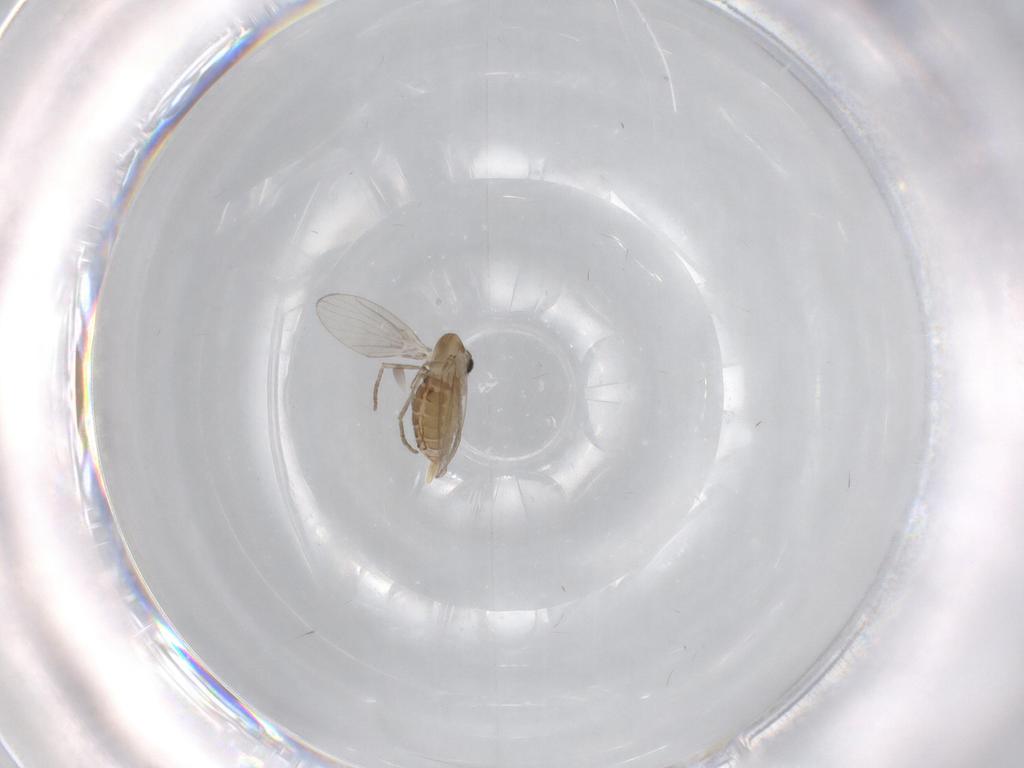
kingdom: Animalia
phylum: Arthropoda
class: Insecta
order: Diptera
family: Psychodidae
